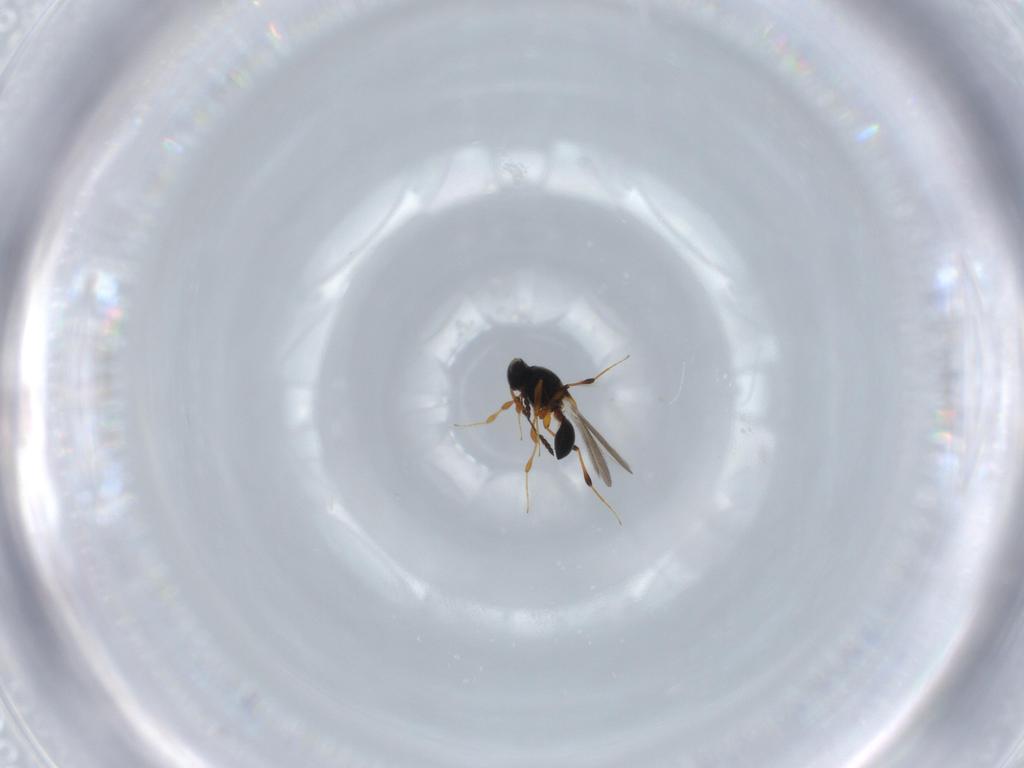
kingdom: Animalia
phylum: Arthropoda
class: Insecta
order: Hymenoptera
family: Platygastridae
